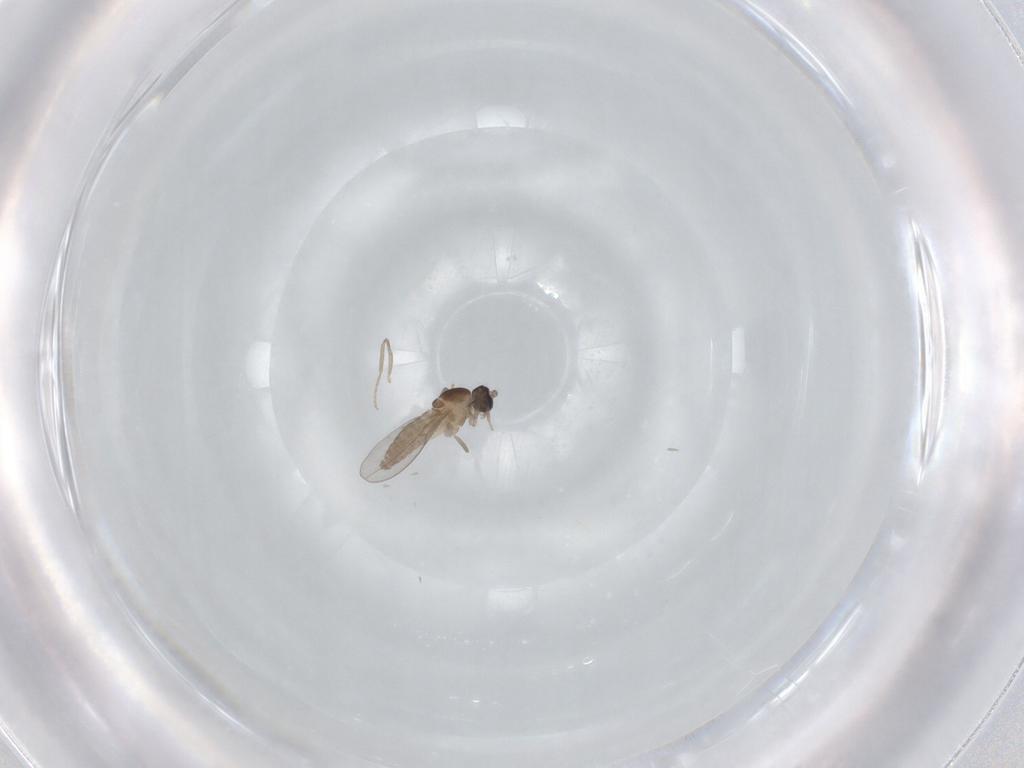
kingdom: Animalia
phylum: Arthropoda
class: Insecta
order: Diptera
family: Cecidomyiidae
